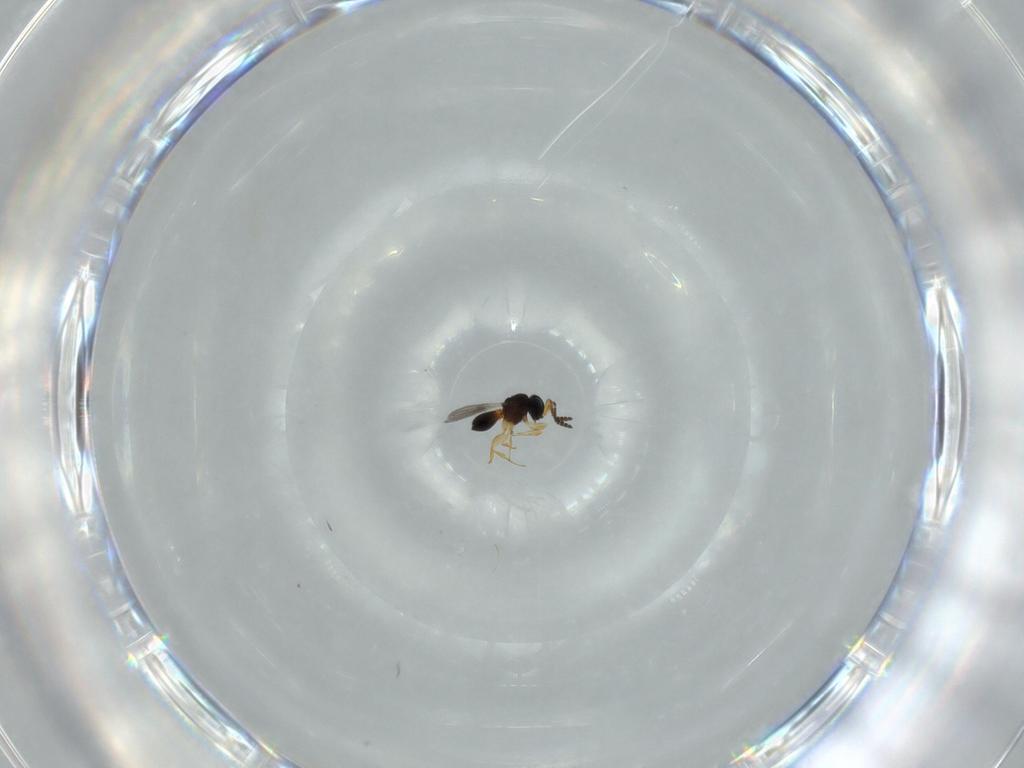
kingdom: Animalia
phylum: Arthropoda
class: Insecta
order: Hymenoptera
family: Scelionidae
